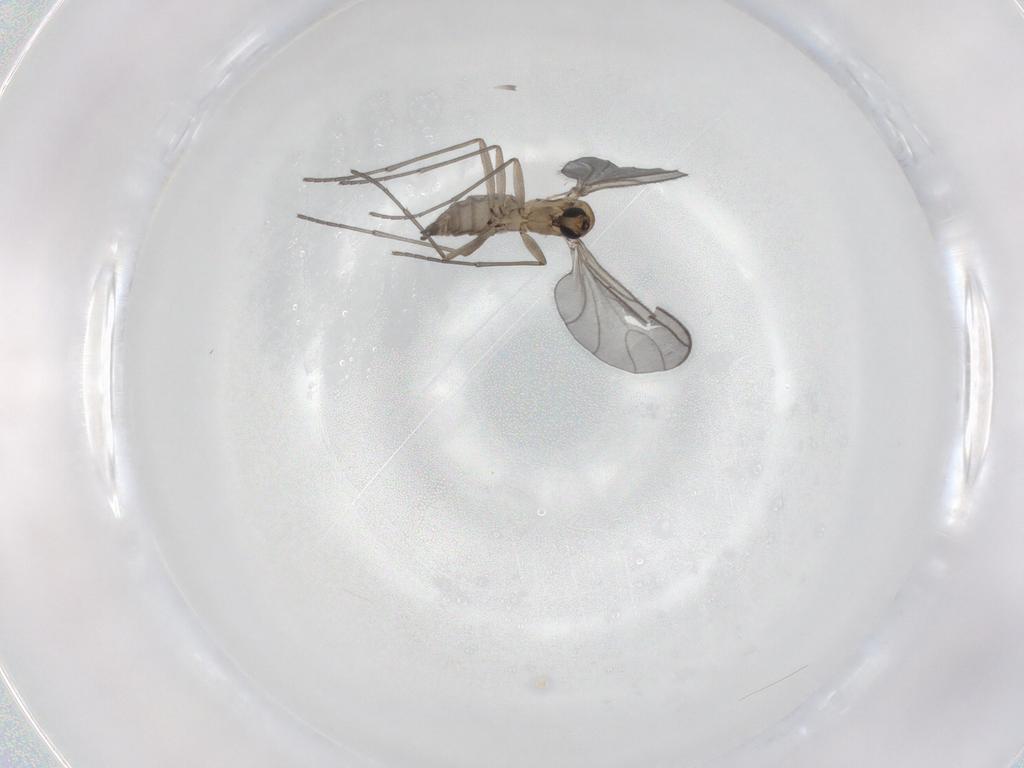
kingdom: Animalia
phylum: Arthropoda
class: Insecta
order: Diptera
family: Sciaridae
